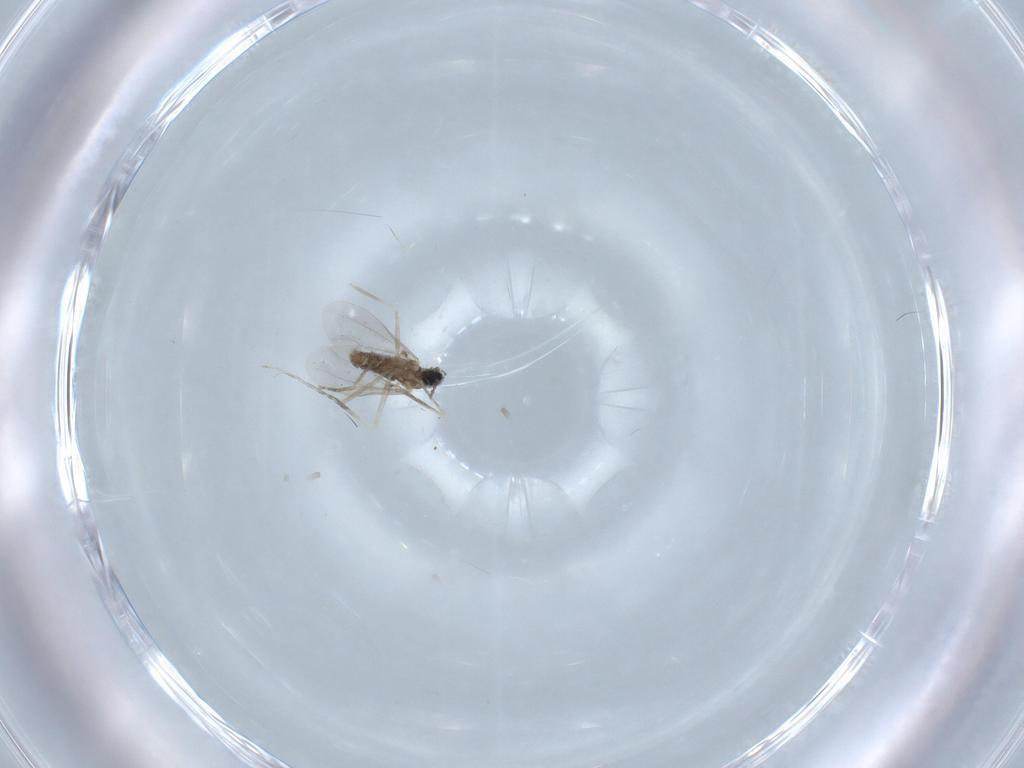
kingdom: Animalia
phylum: Arthropoda
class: Insecta
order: Diptera
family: Cecidomyiidae
